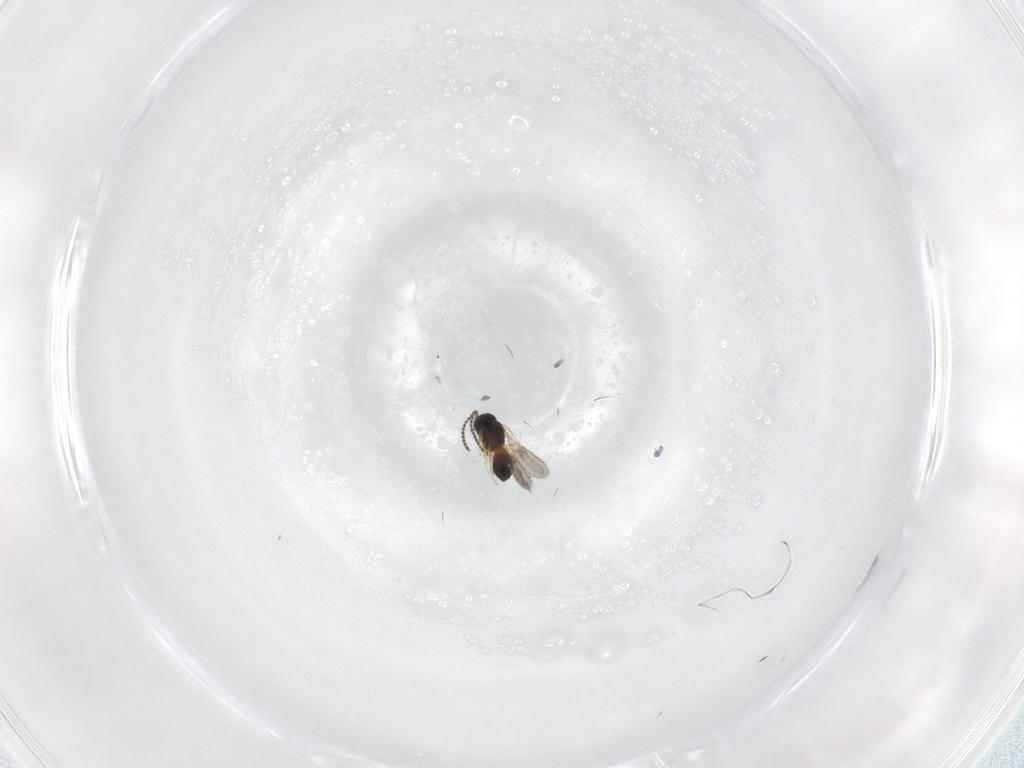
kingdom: Animalia
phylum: Arthropoda
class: Insecta
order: Hymenoptera
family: Eulophidae
